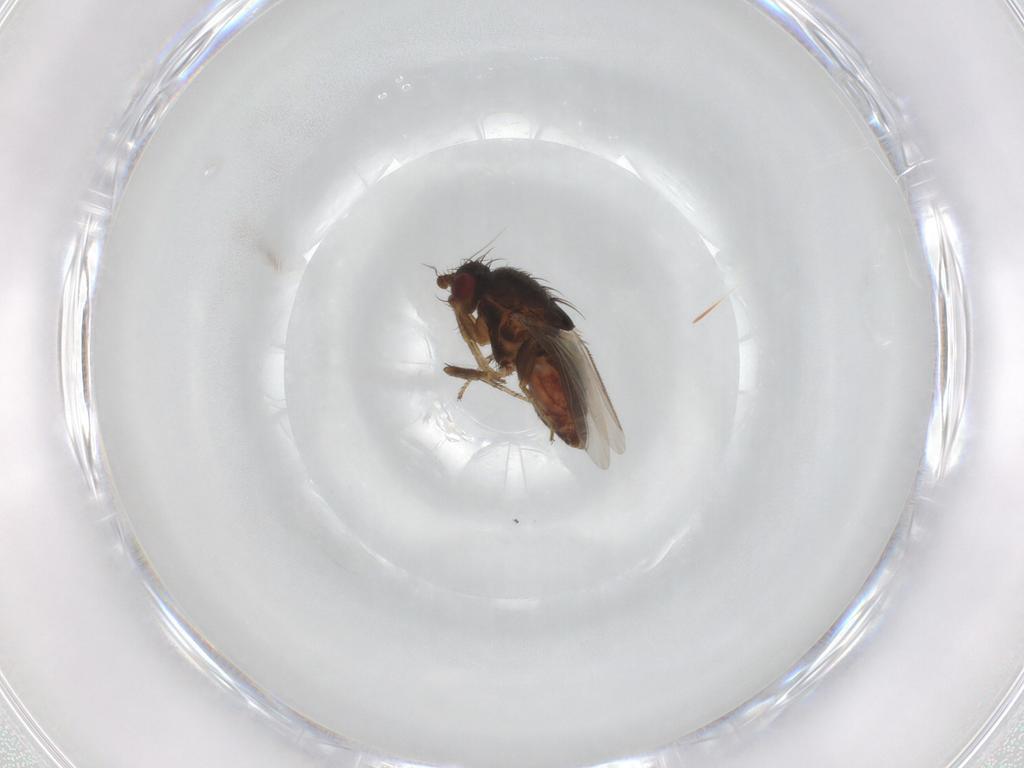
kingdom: Animalia
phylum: Arthropoda
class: Insecta
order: Diptera
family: Sphaeroceridae
